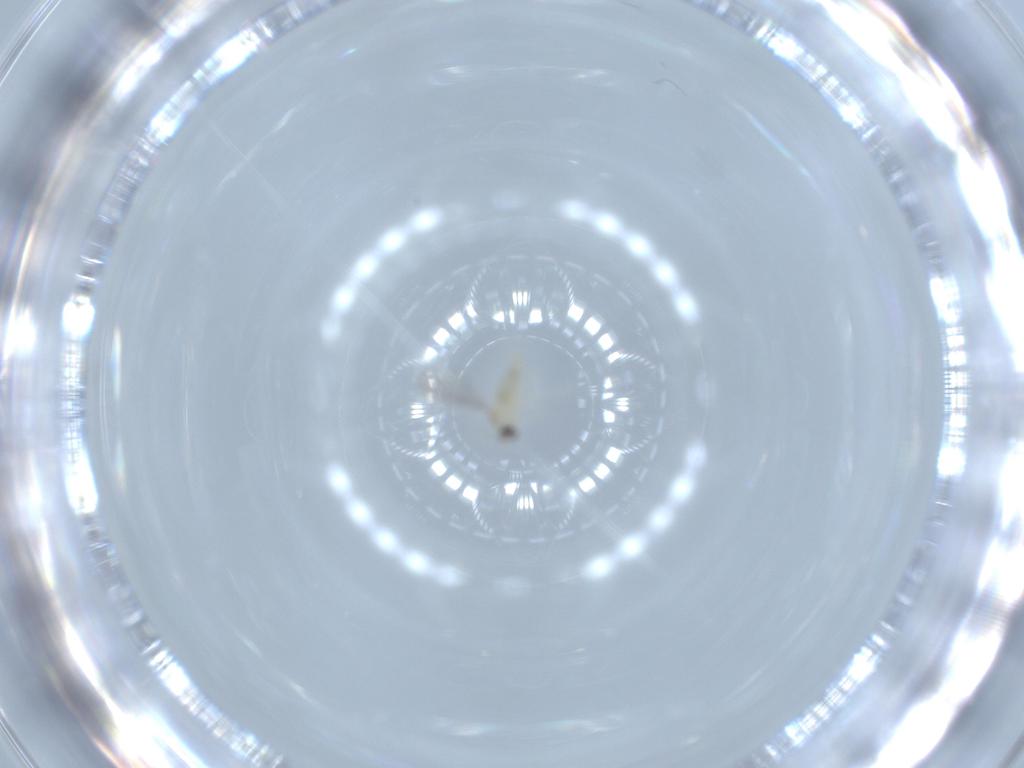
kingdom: Animalia
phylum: Arthropoda
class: Insecta
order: Diptera
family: Cecidomyiidae
